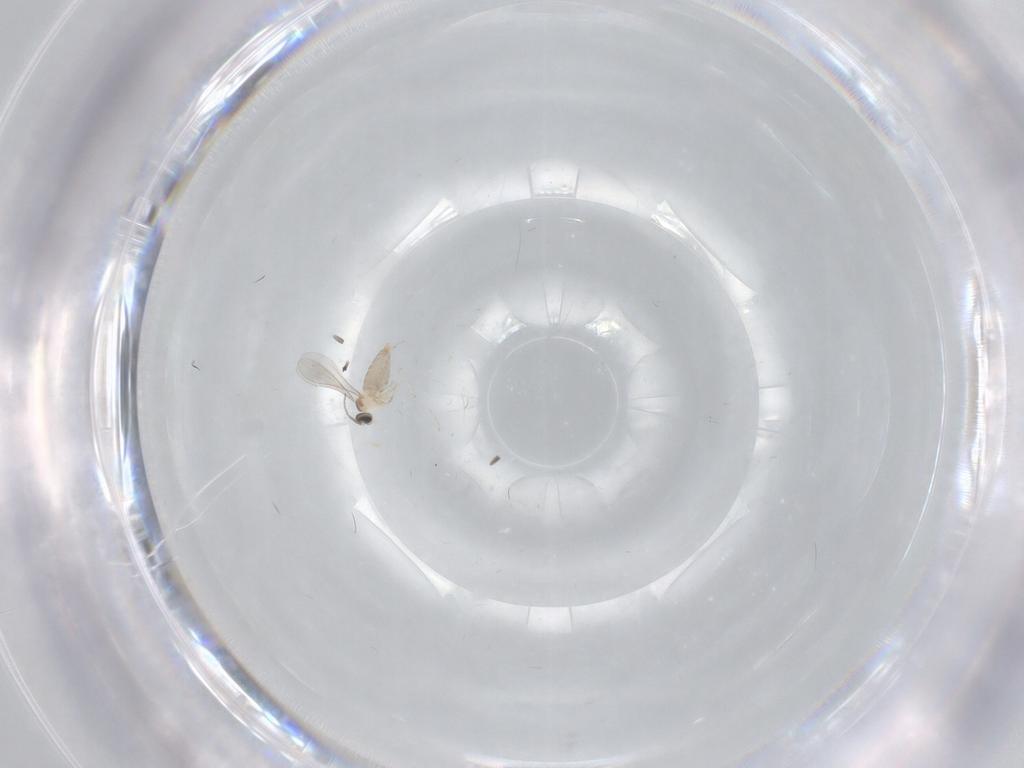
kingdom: Animalia
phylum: Arthropoda
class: Insecta
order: Diptera
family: Cecidomyiidae
